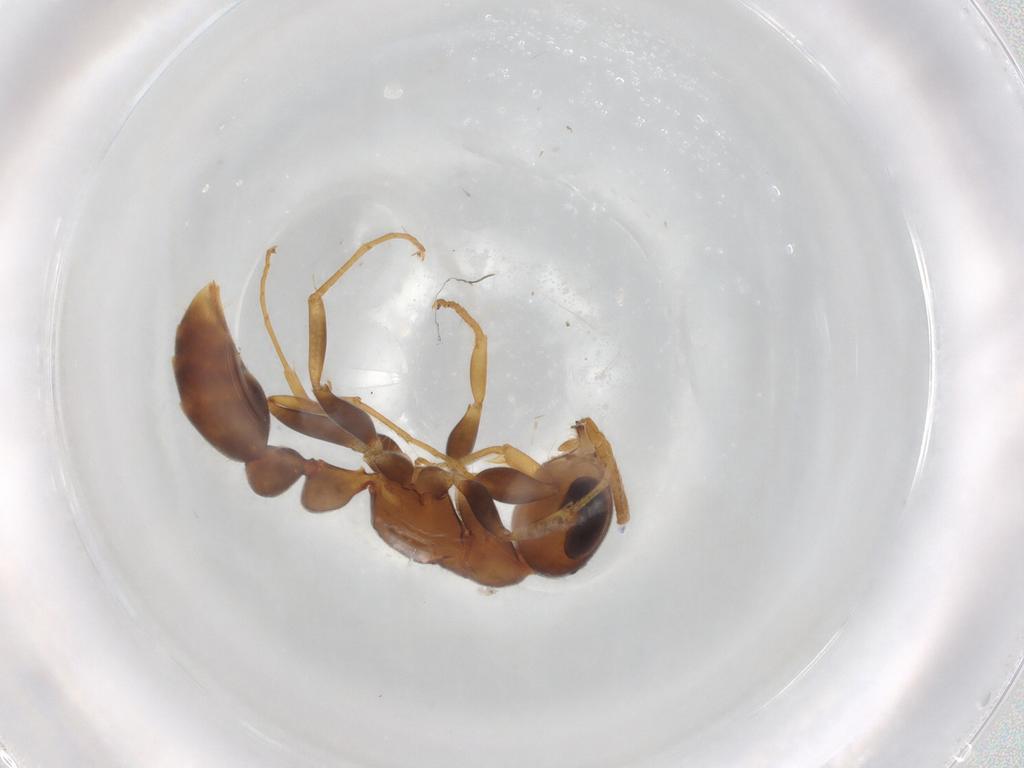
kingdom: Animalia
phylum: Arthropoda
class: Insecta
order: Hymenoptera
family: Formicidae
